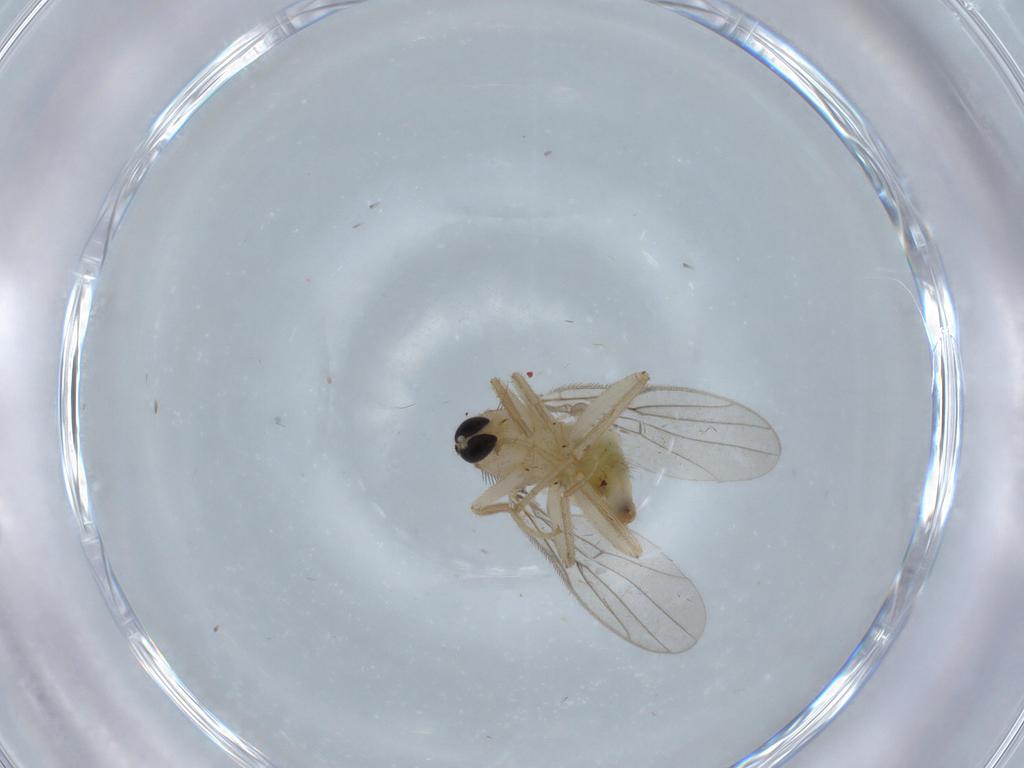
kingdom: Animalia
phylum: Arthropoda
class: Insecta
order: Diptera
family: Hybotidae
